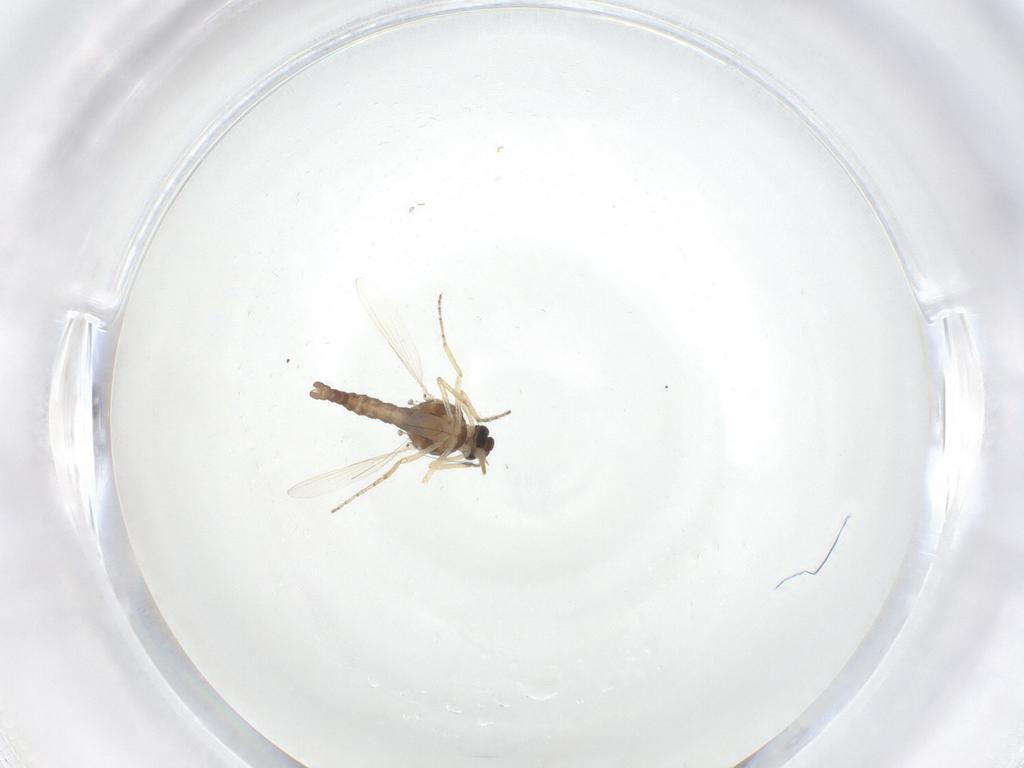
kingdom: Animalia
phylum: Arthropoda
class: Insecta
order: Diptera
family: Ceratopogonidae
